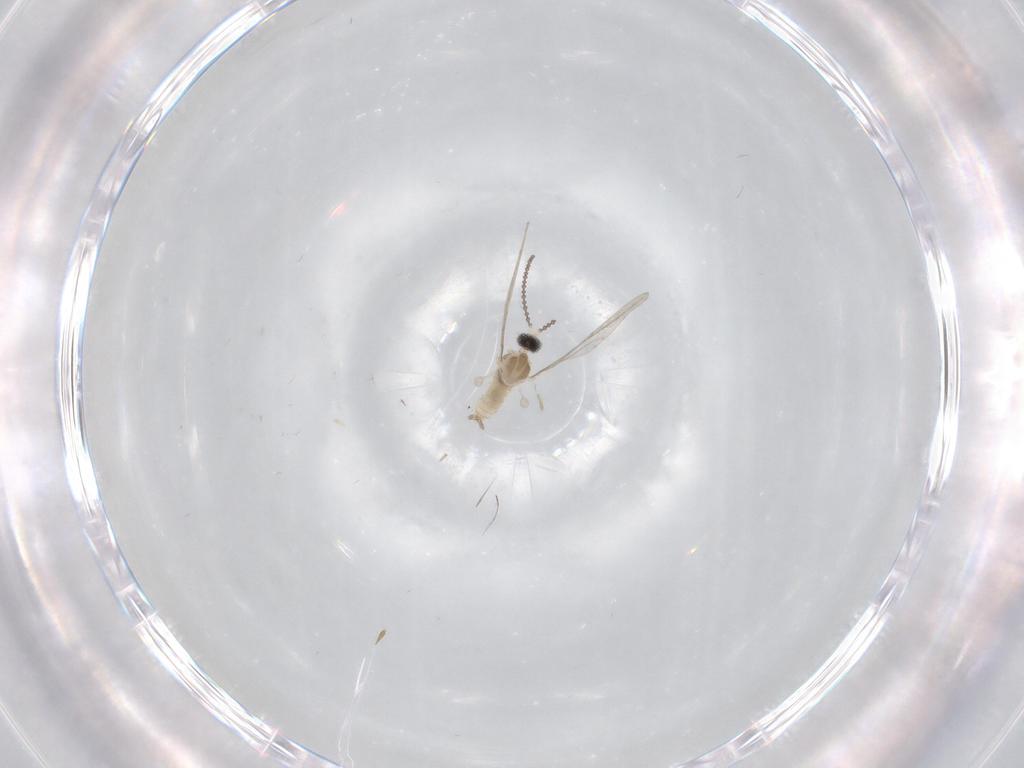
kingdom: Animalia
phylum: Arthropoda
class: Insecta
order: Diptera
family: Cecidomyiidae
